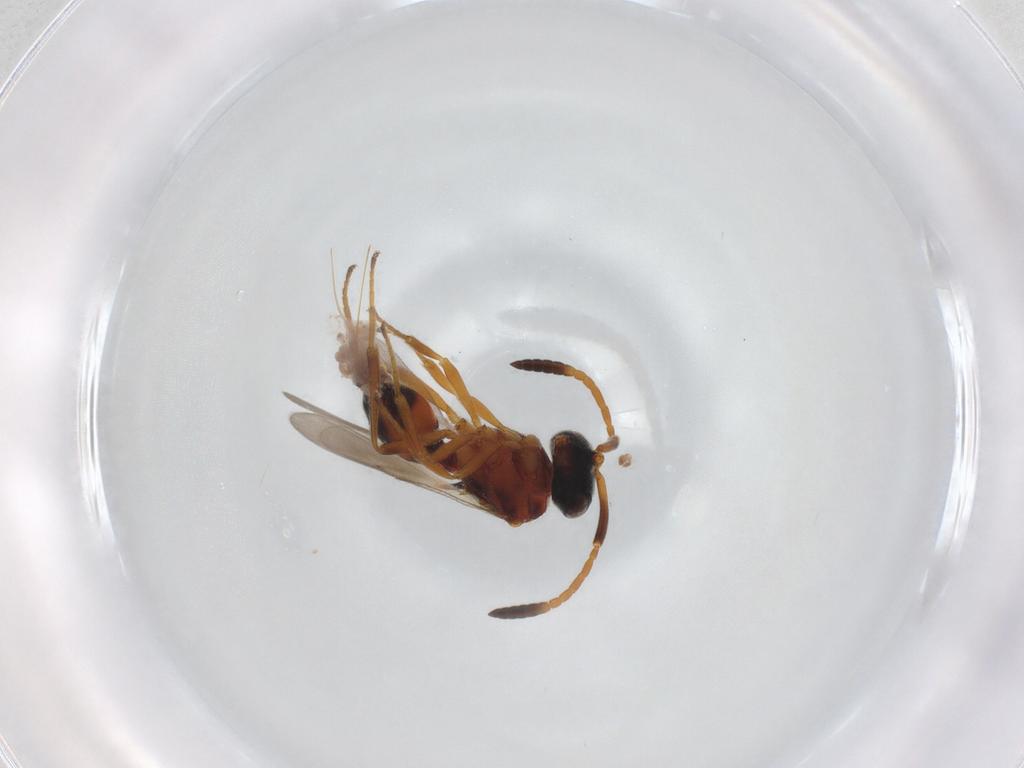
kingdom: Animalia
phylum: Arthropoda
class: Insecta
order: Hymenoptera
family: Scelionidae
